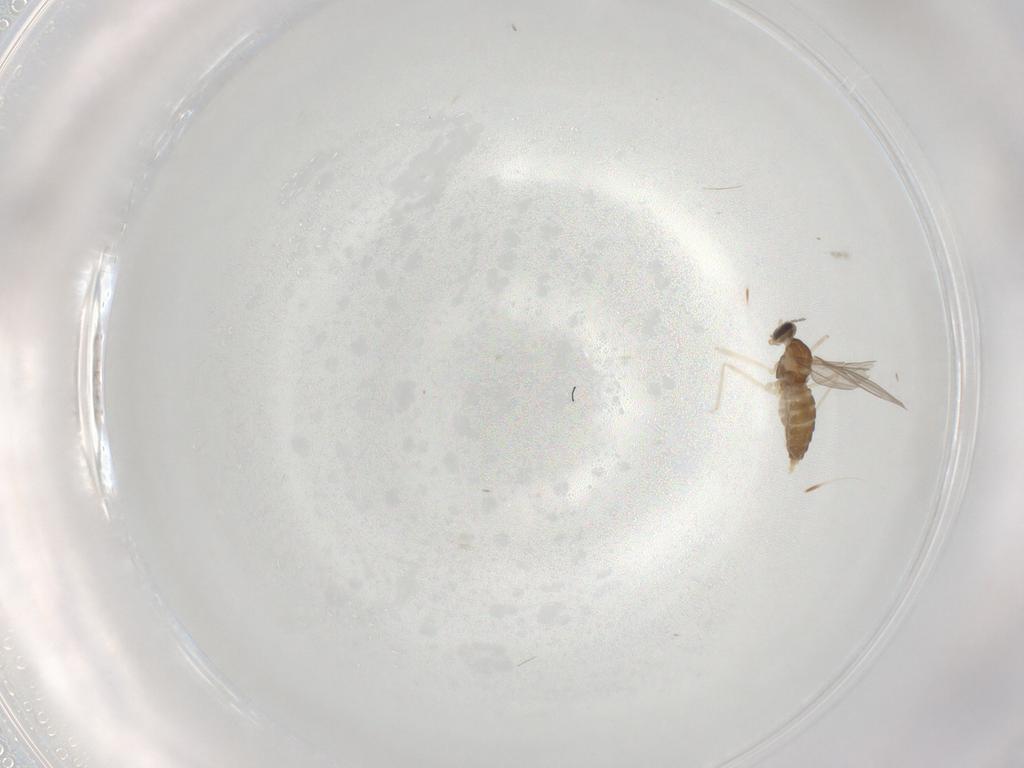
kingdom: Animalia
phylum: Arthropoda
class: Insecta
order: Diptera
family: Cecidomyiidae
